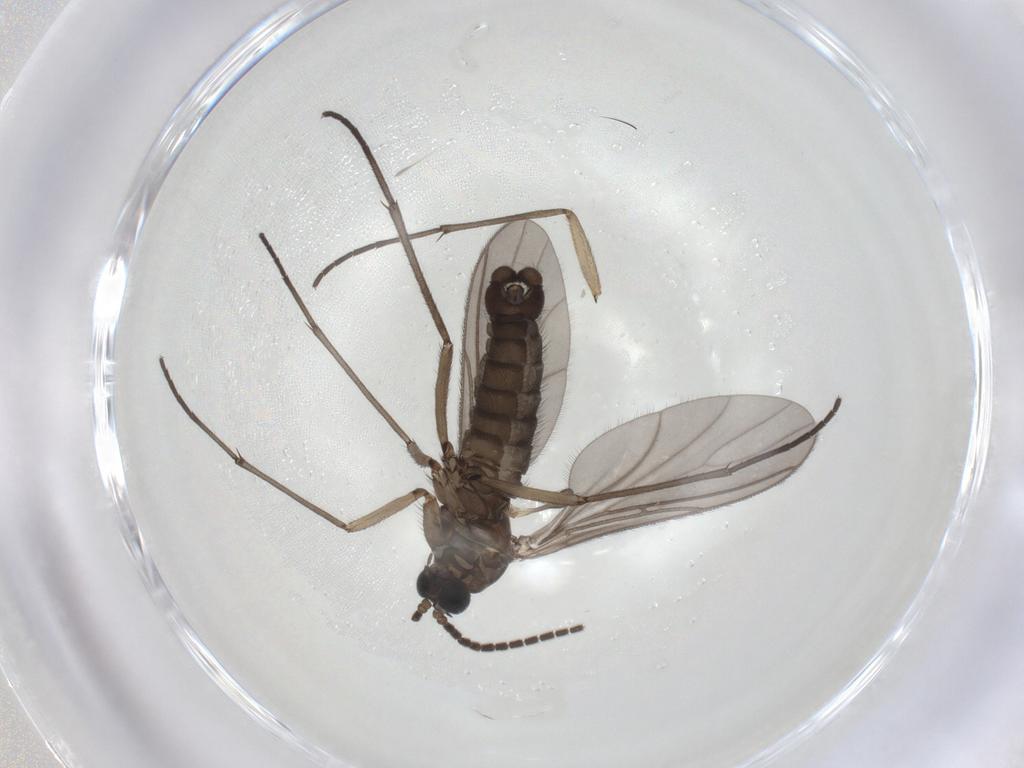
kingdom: Animalia
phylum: Arthropoda
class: Insecta
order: Diptera
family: Sciaridae
